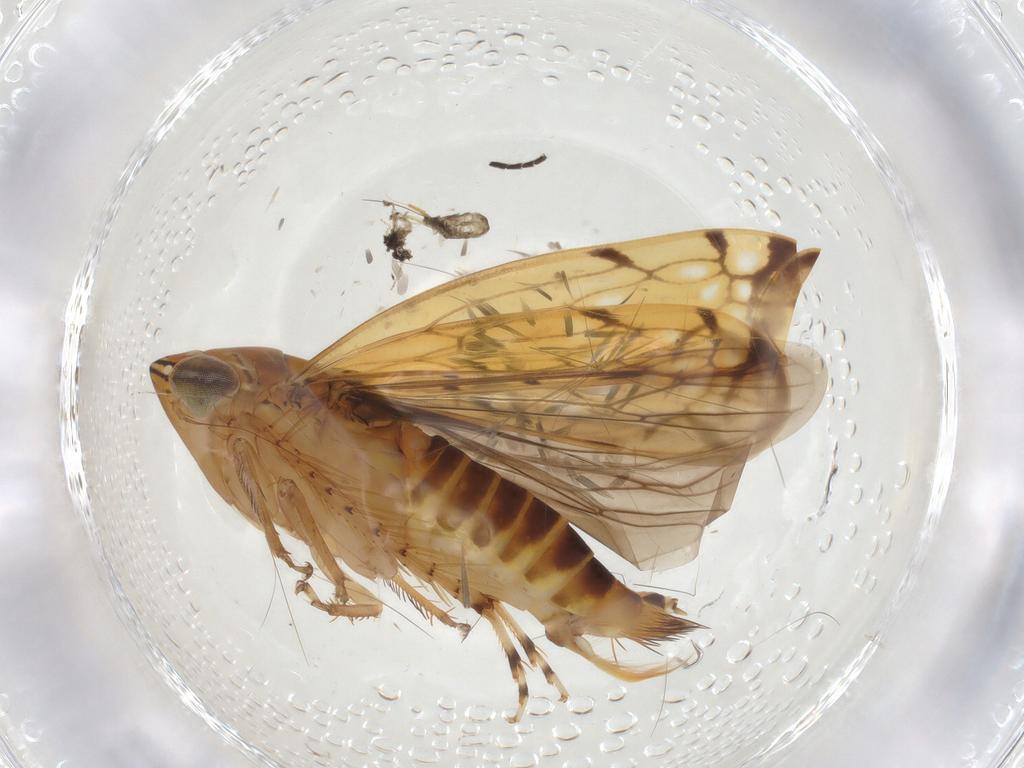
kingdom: Animalia
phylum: Arthropoda
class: Insecta
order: Hemiptera
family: Cicadellidae
